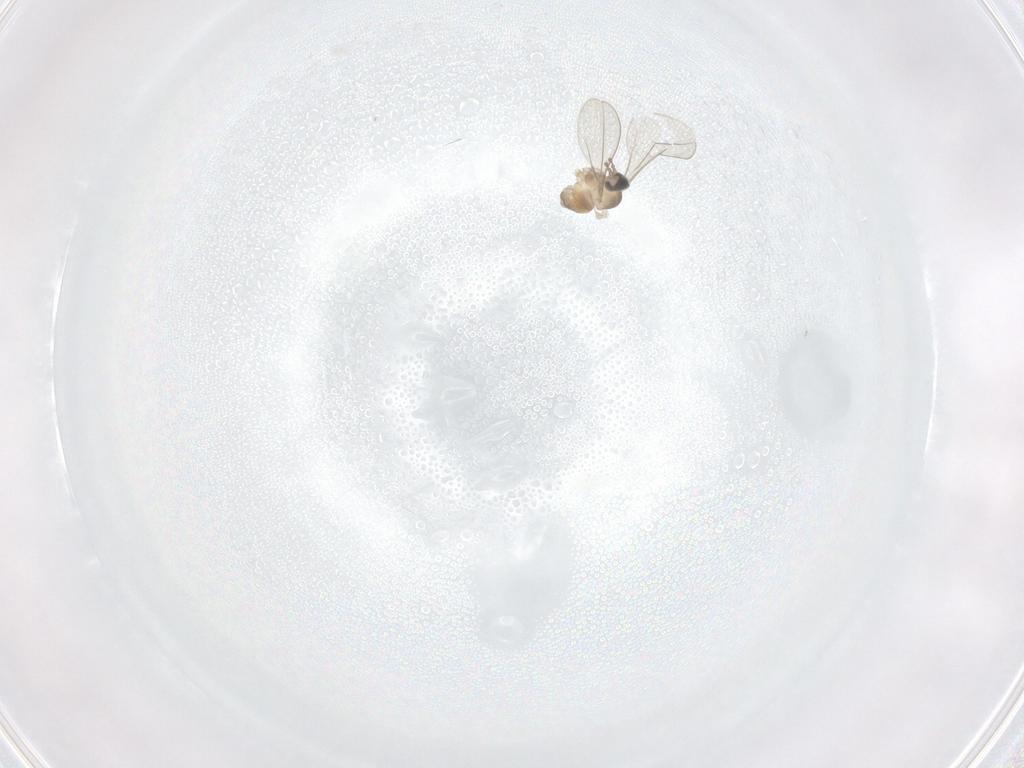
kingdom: Animalia
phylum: Arthropoda
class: Insecta
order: Diptera
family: Cecidomyiidae
